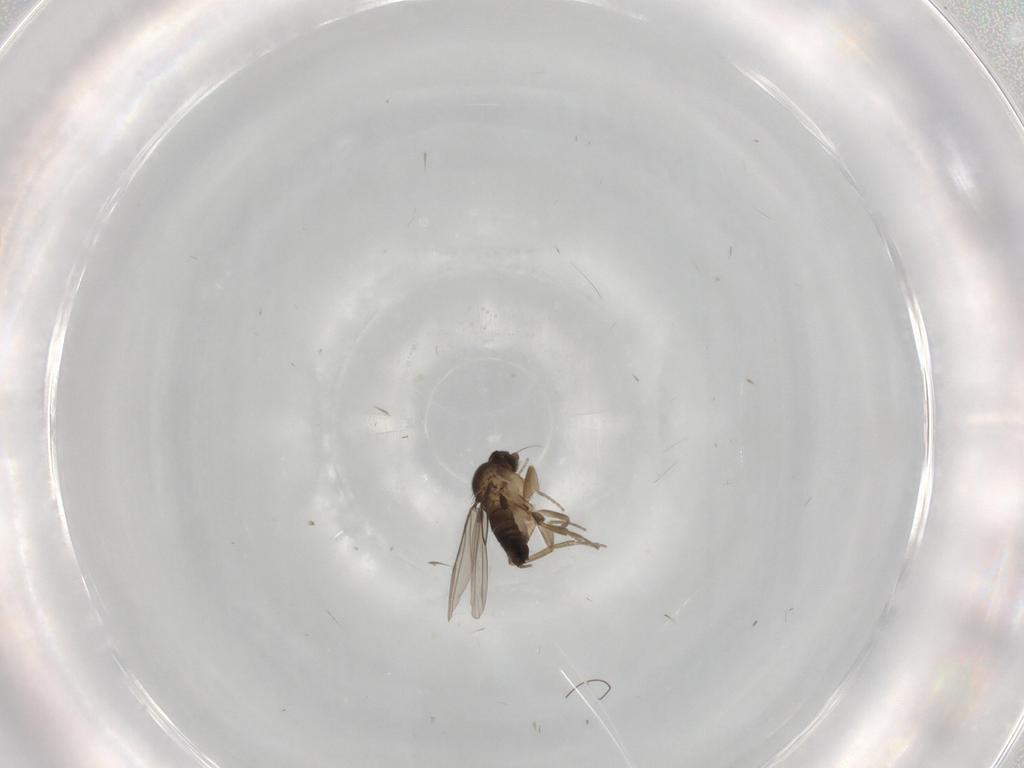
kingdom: Animalia
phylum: Arthropoda
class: Insecta
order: Diptera
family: Phoridae
